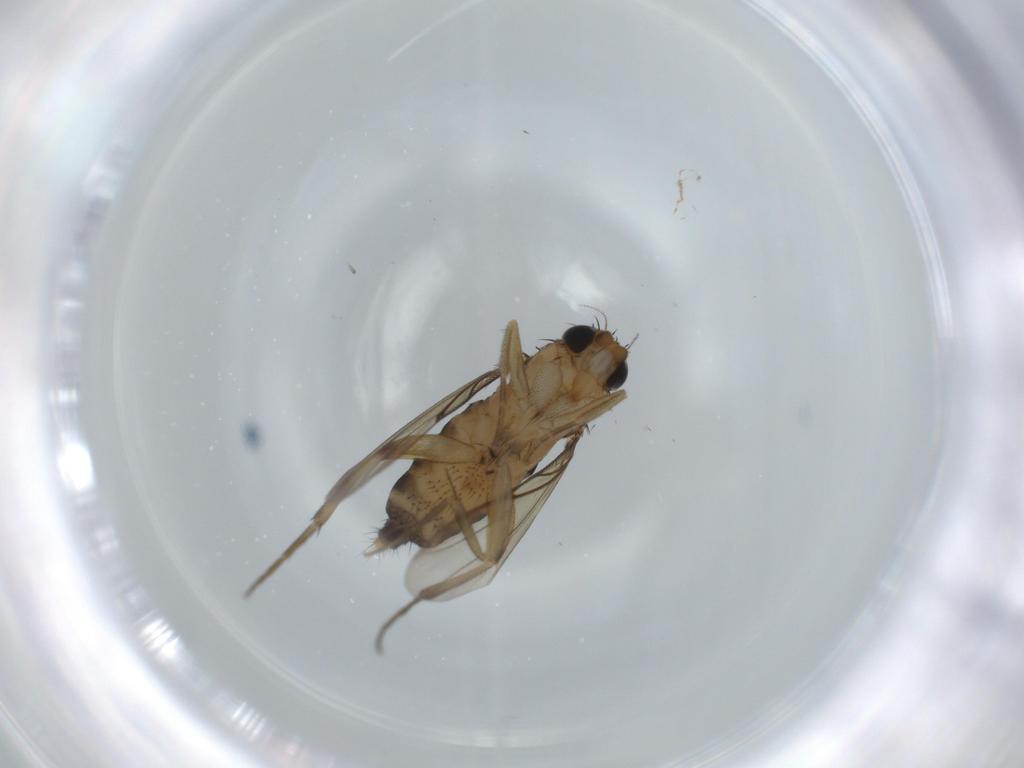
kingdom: Animalia
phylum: Arthropoda
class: Insecta
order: Diptera
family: Phoridae
